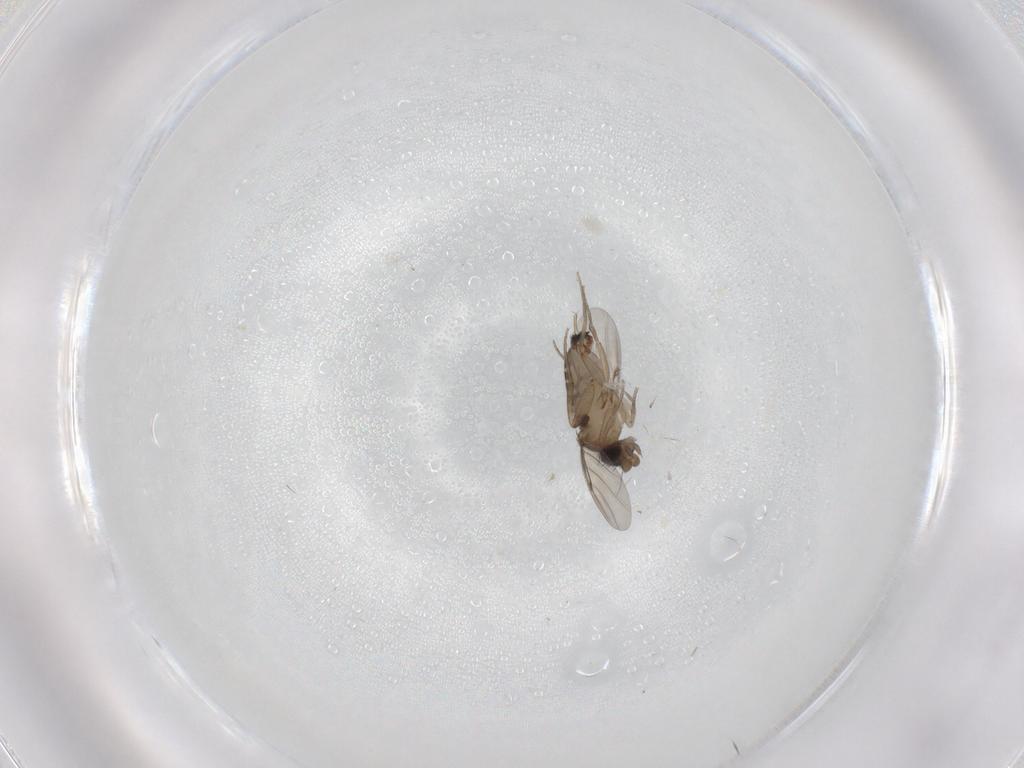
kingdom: Animalia
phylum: Arthropoda
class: Insecta
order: Diptera
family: Phoridae
